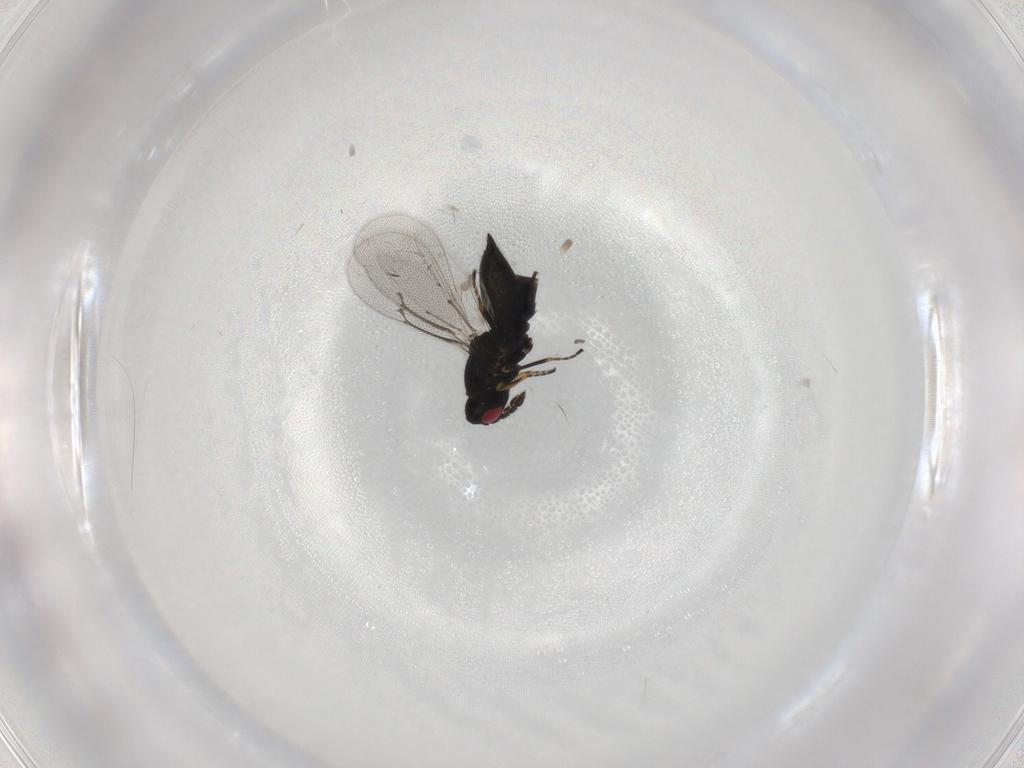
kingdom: Animalia
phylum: Arthropoda
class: Insecta
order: Hymenoptera
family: Eulophidae
